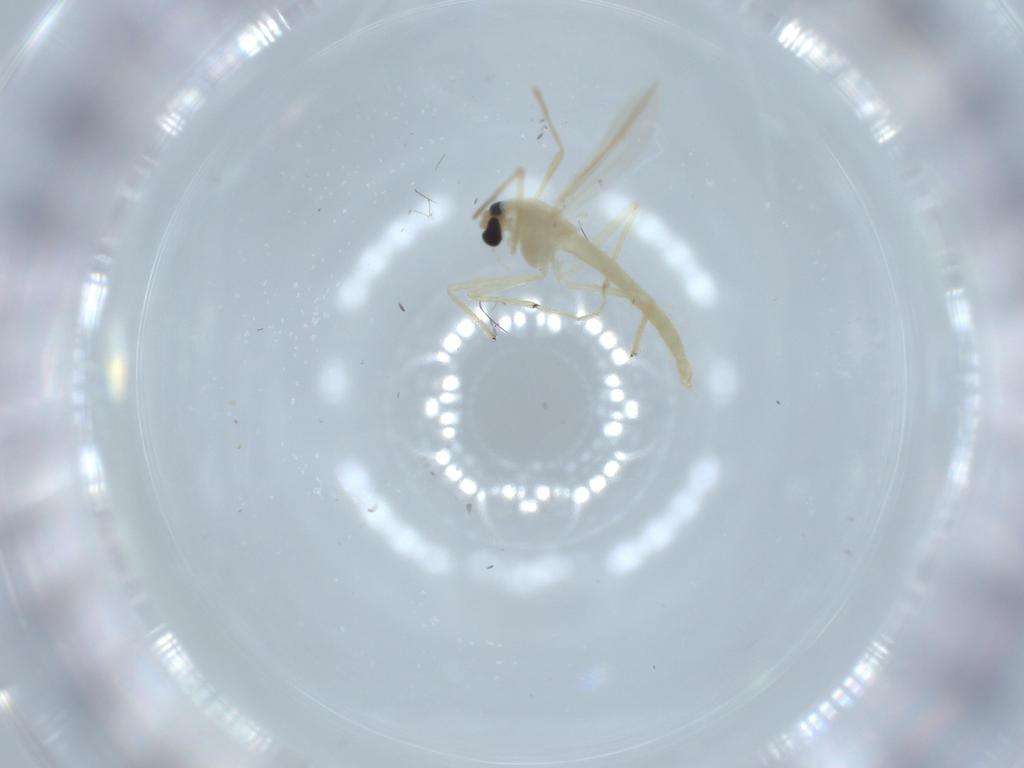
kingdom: Animalia
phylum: Arthropoda
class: Insecta
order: Diptera
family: Chironomidae
